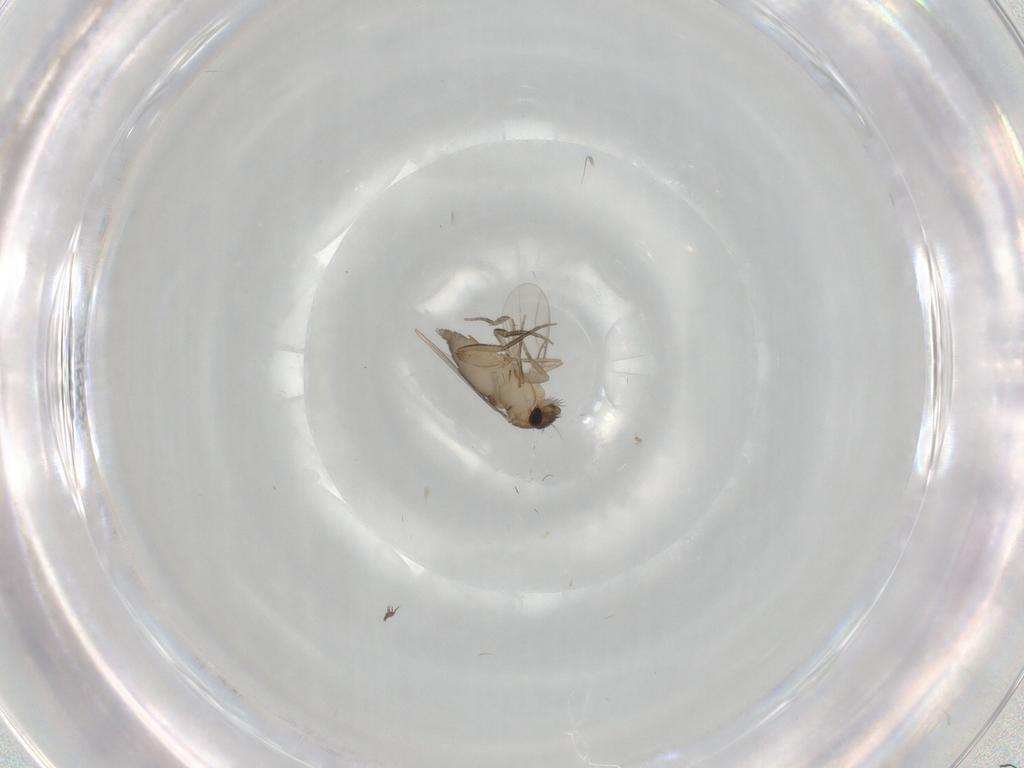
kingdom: Animalia
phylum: Arthropoda
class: Insecta
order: Diptera
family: Phoridae
